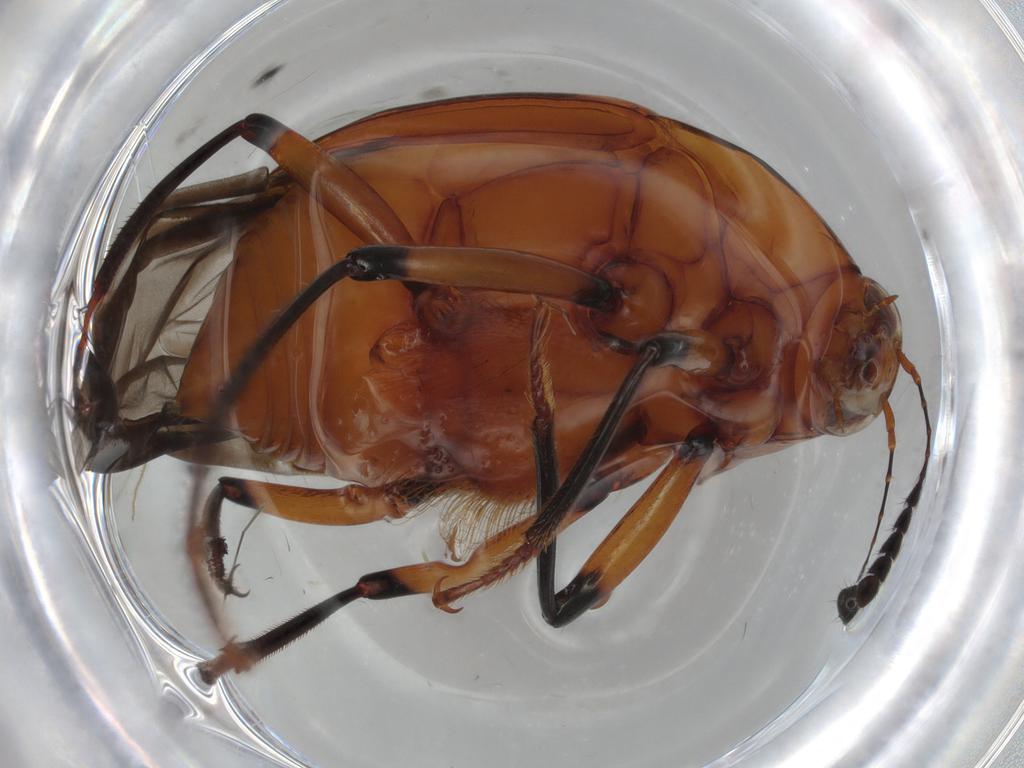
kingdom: Animalia
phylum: Arthropoda
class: Insecta
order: Coleoptera
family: Staphylinidae
